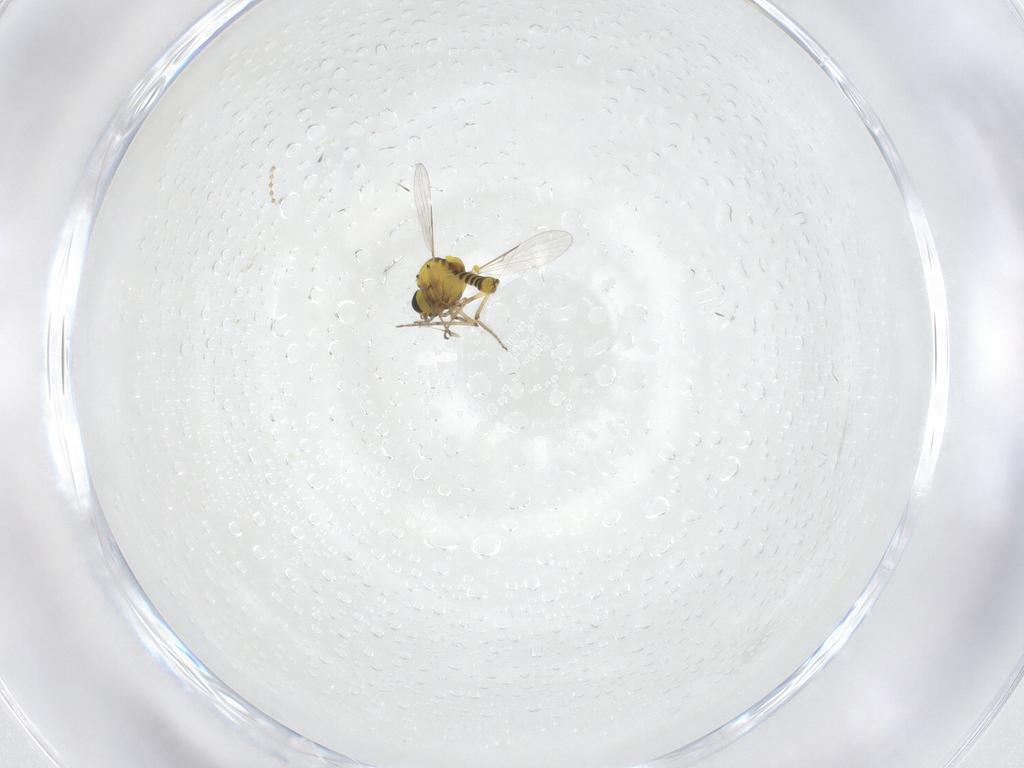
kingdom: Animalia
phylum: Arthropoda
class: Insecta
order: Diptera
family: Ceratopogonidae
